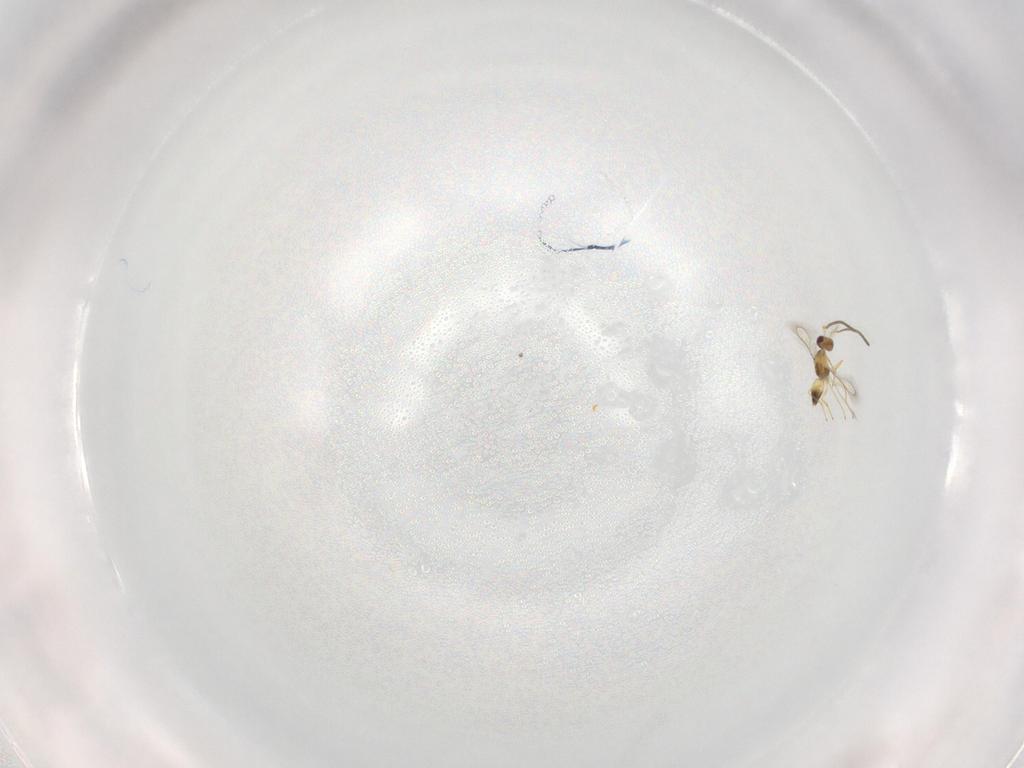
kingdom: Animalia
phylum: Arthropoda
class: Insecta
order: Hymenoptera
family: Mymaridae
